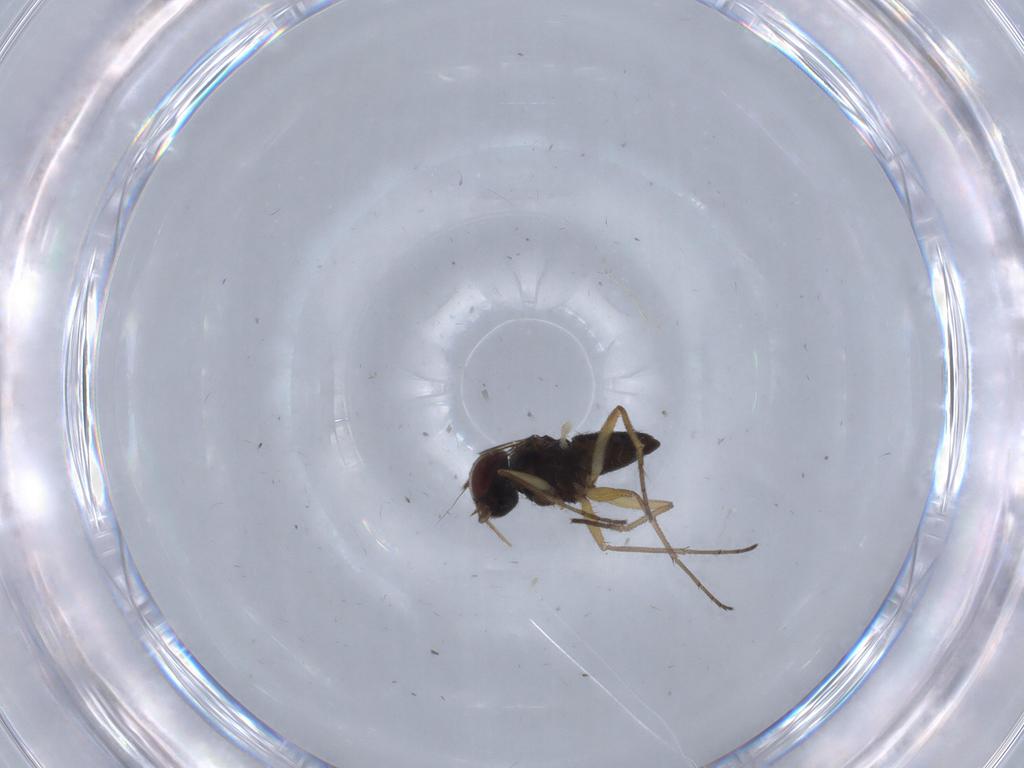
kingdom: Animalia
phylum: Arthropoda
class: Insecta
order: Diptera
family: Dolichopodidae
